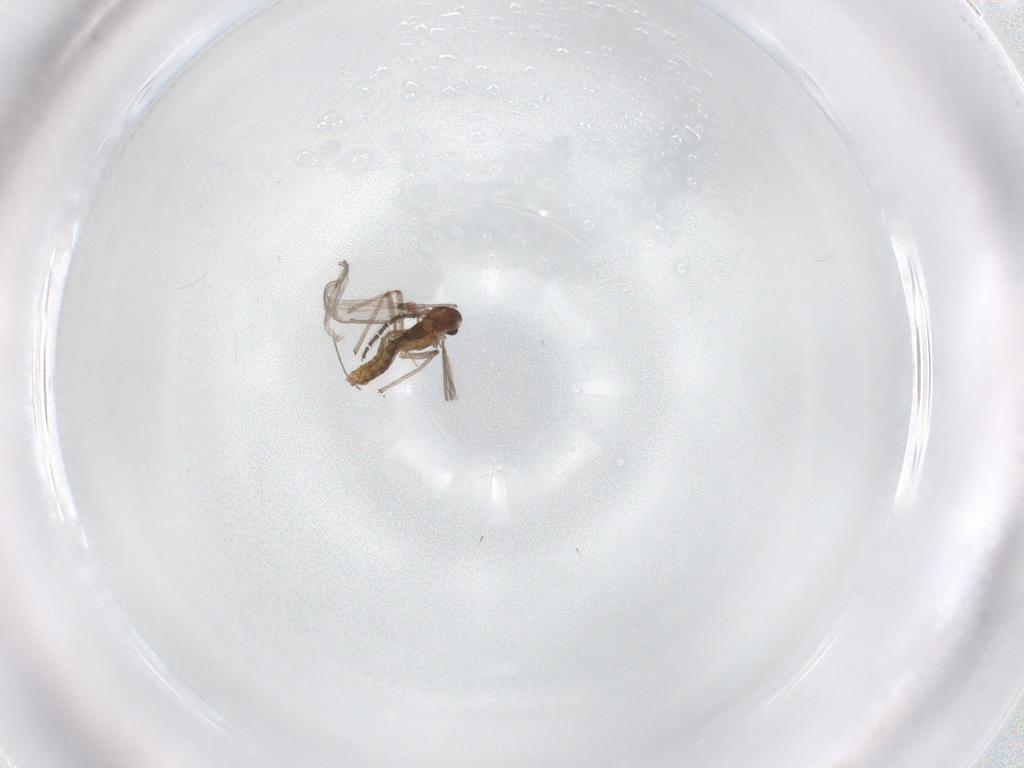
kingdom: Animalia
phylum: Arthropoda
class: Insecta
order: Diptera
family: Chironomidae
